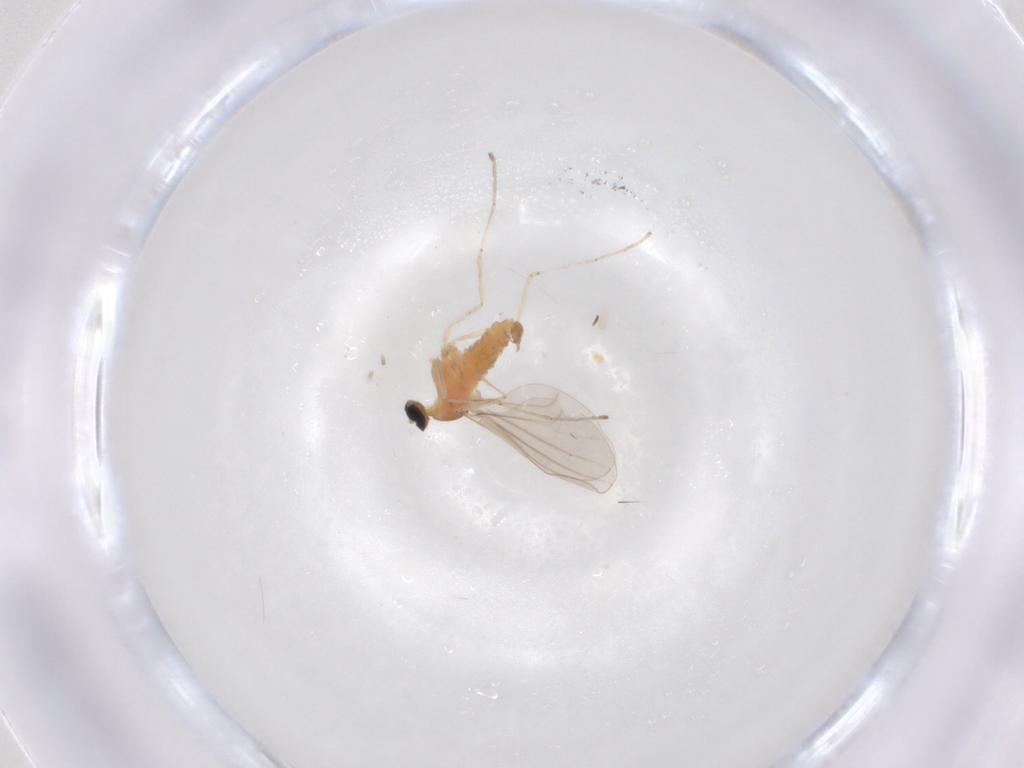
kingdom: Animalia
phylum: Arthropoda
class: Insecta
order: Diptera
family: Cecidomyiidae
